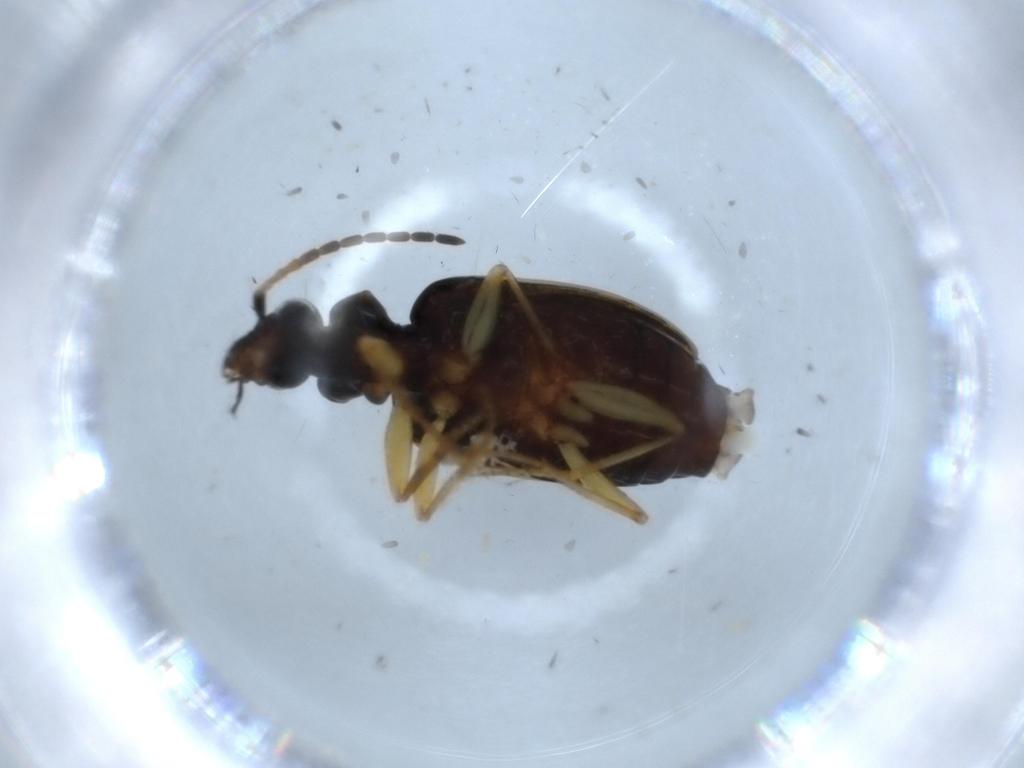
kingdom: Animalia
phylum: Arthropoda
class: Insecta
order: Coleoptera
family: Carabidae
